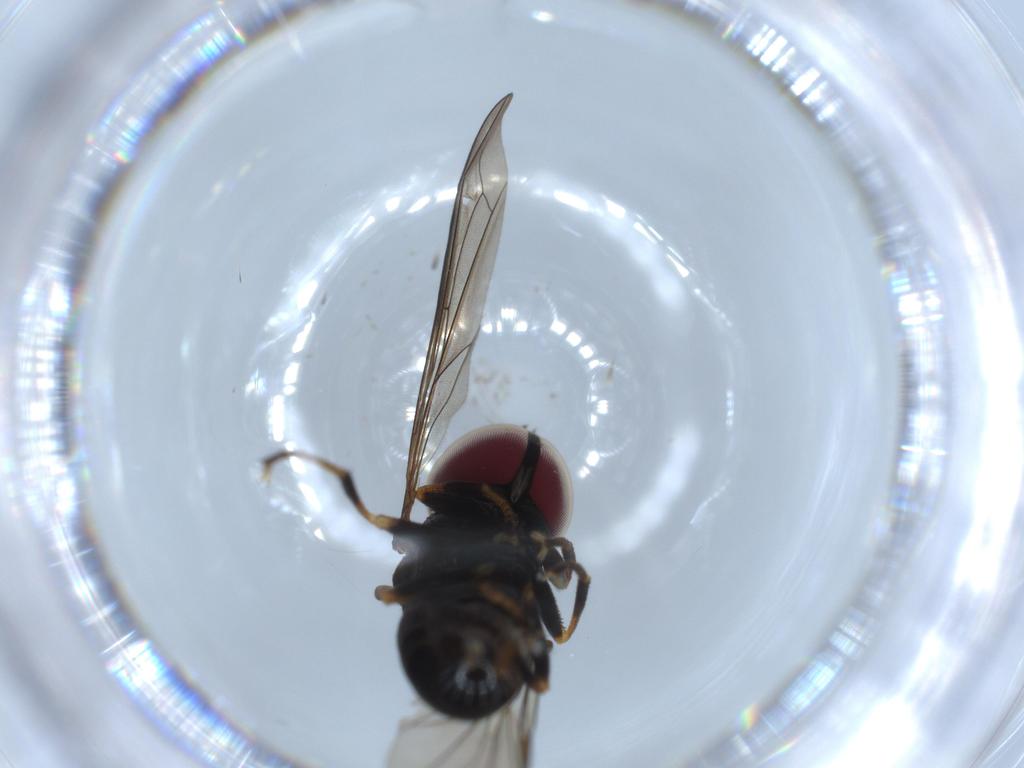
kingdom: Animalia
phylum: Arthropoda
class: Insecta
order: Diptera
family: Pipunculidae
